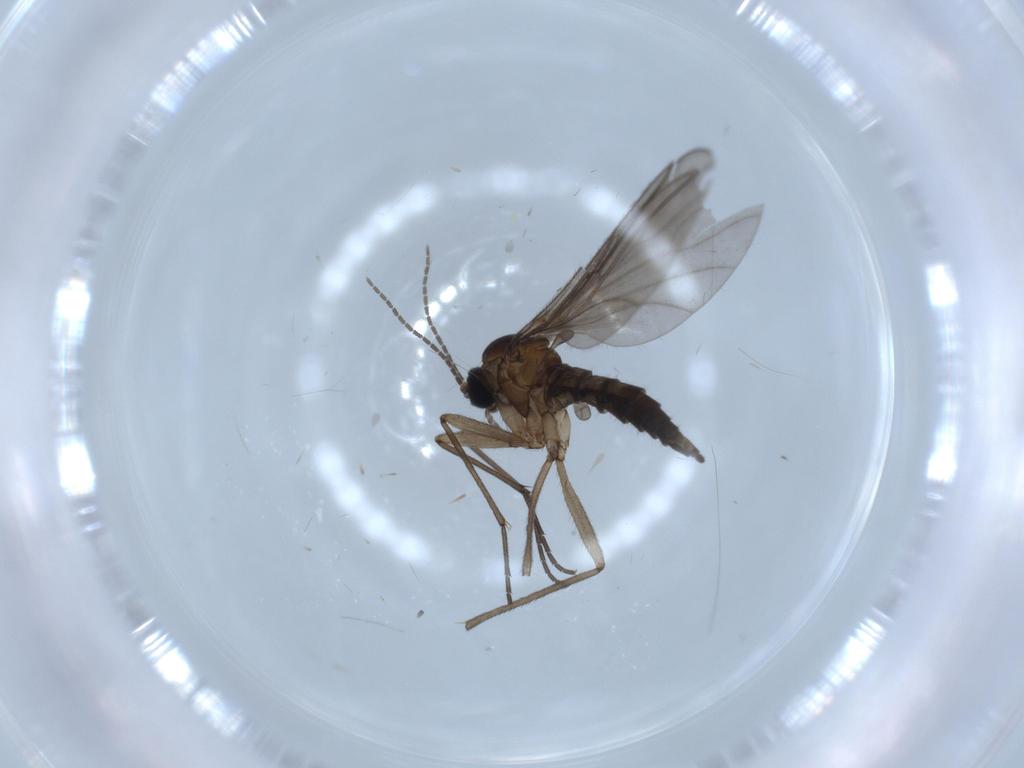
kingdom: Animalia
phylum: Arthropoda
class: Insecta
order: Diptera
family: Sciaridae
